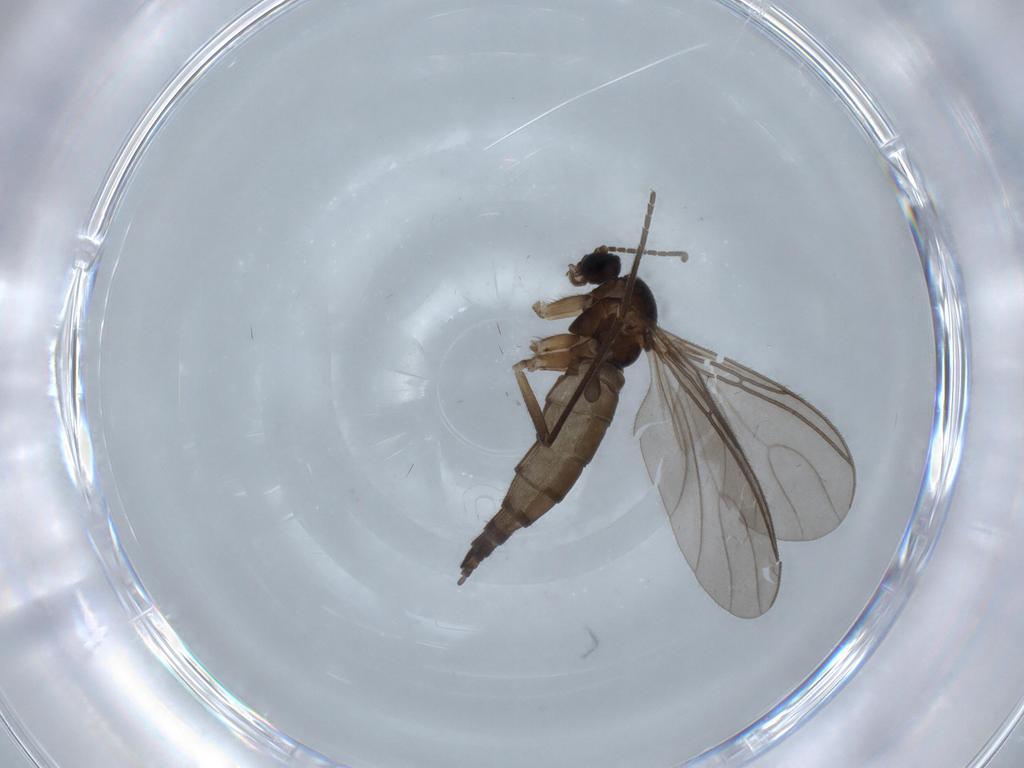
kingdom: Animalia
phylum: Arthropoda
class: Insecta
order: Diptera
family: Sciaridae
